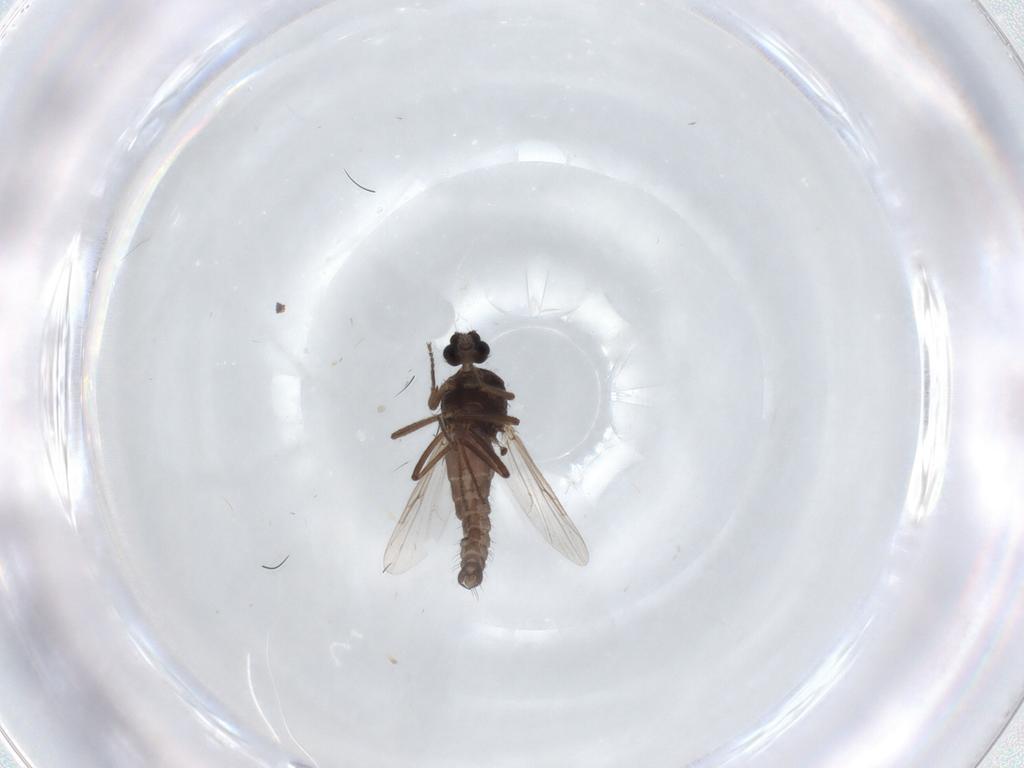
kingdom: Animalia
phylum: Arthropoda
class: Insecta
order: Diptera
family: Ceratopogonidae
